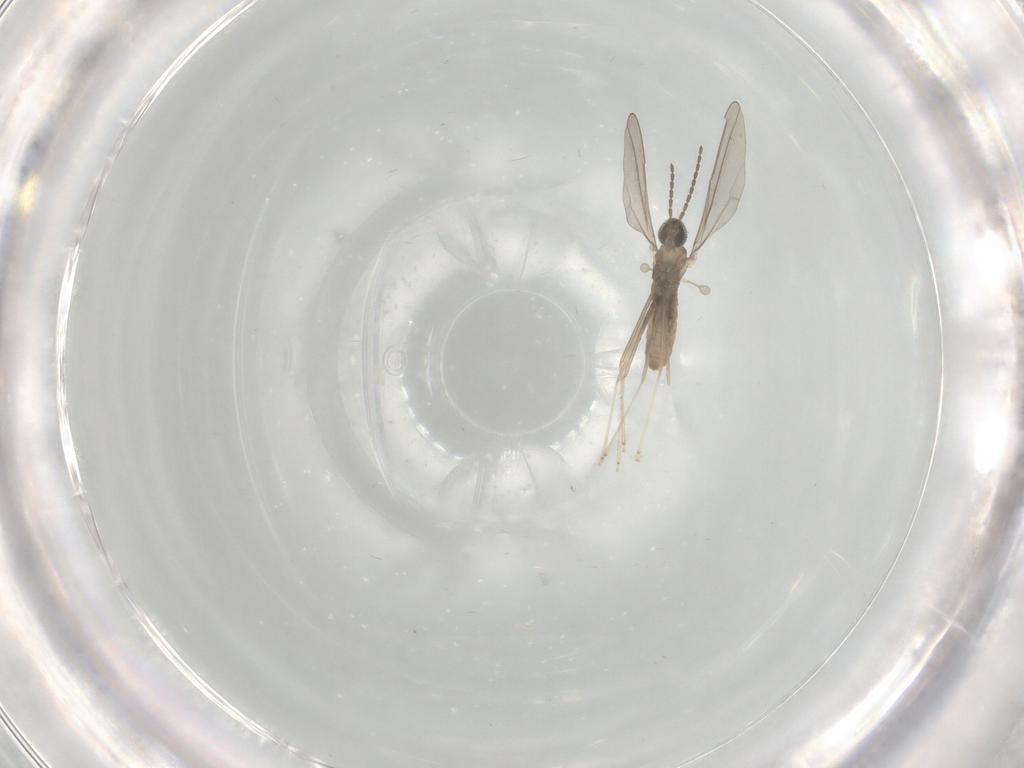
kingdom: Animalia
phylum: Arthropoda
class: Insecta
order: Diptera
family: Cecidomyiidae
